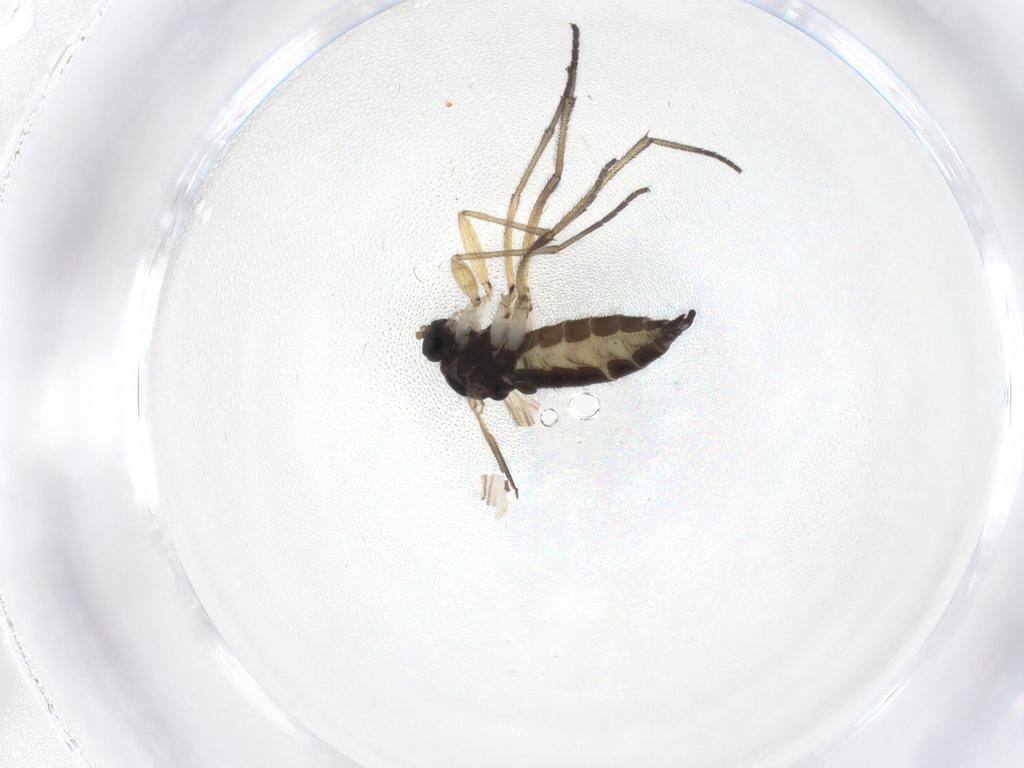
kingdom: Animalia
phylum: Arthropoda
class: Insecta
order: Diptera
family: Sciaridae
